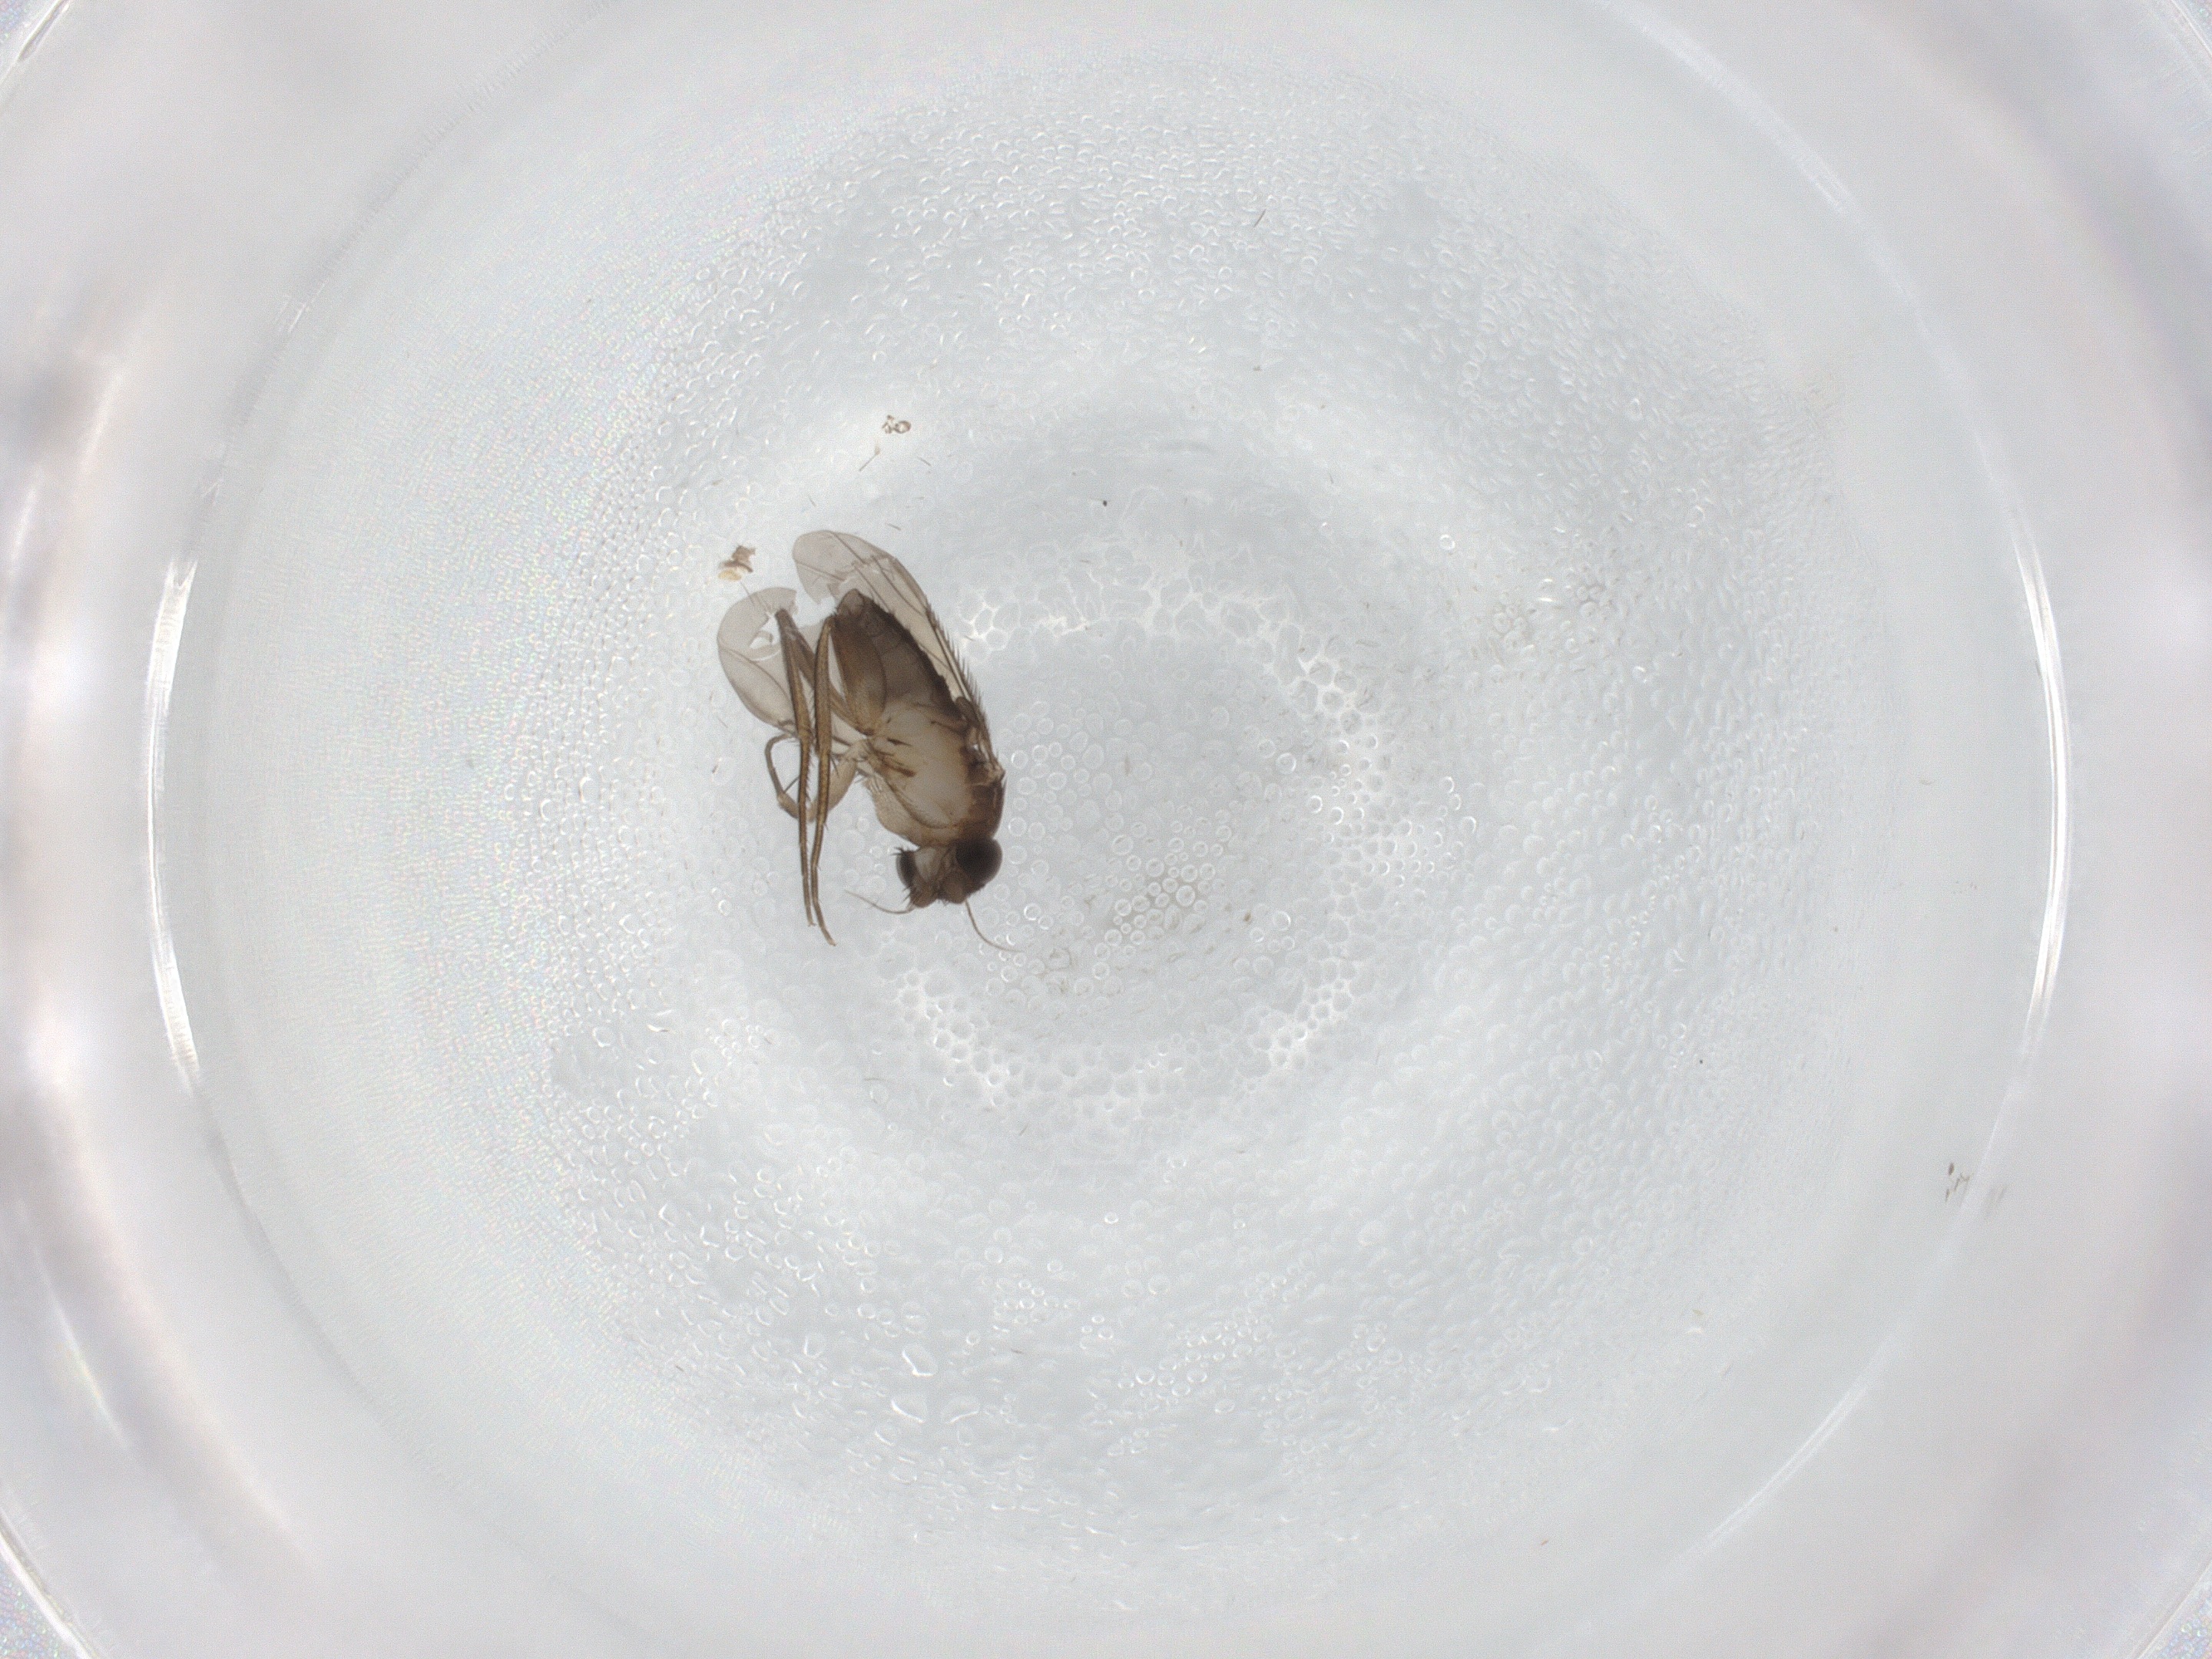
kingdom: Animalia
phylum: Arthropoda
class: Insecta
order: Diptera
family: Phoridae
